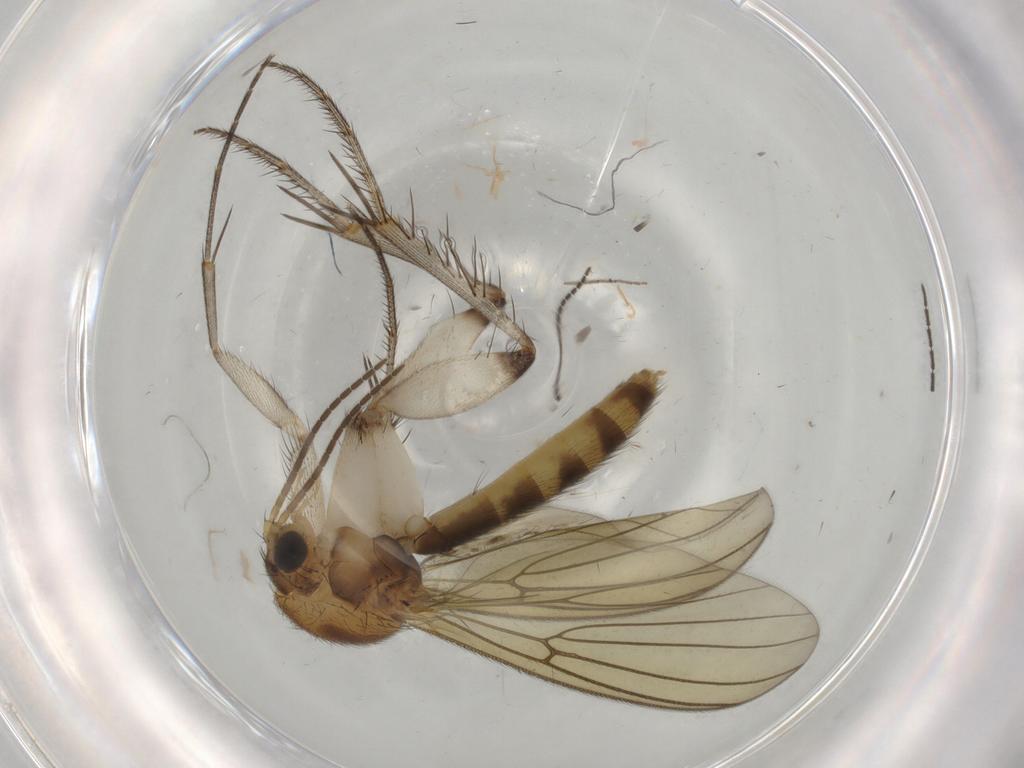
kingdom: Animalia
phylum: Arthropoda
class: Insecta
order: Diptera
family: Mycetophilidae
